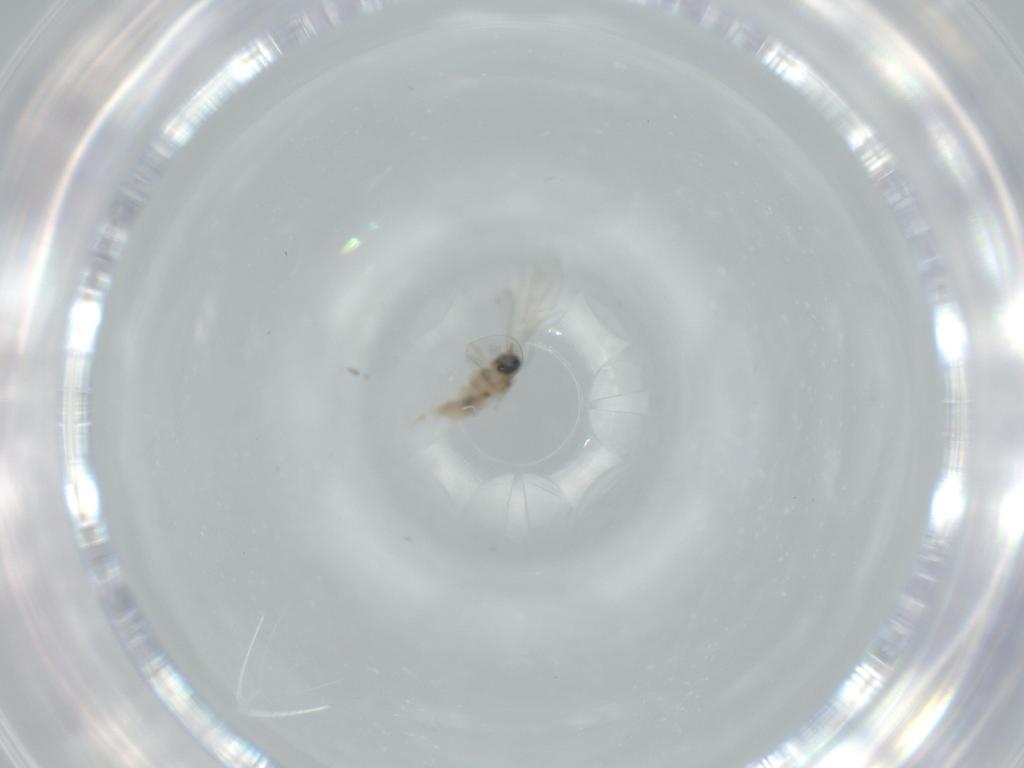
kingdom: Animalia
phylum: Arthropoda
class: Insecta
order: Diptera
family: Cecidomyiidae
